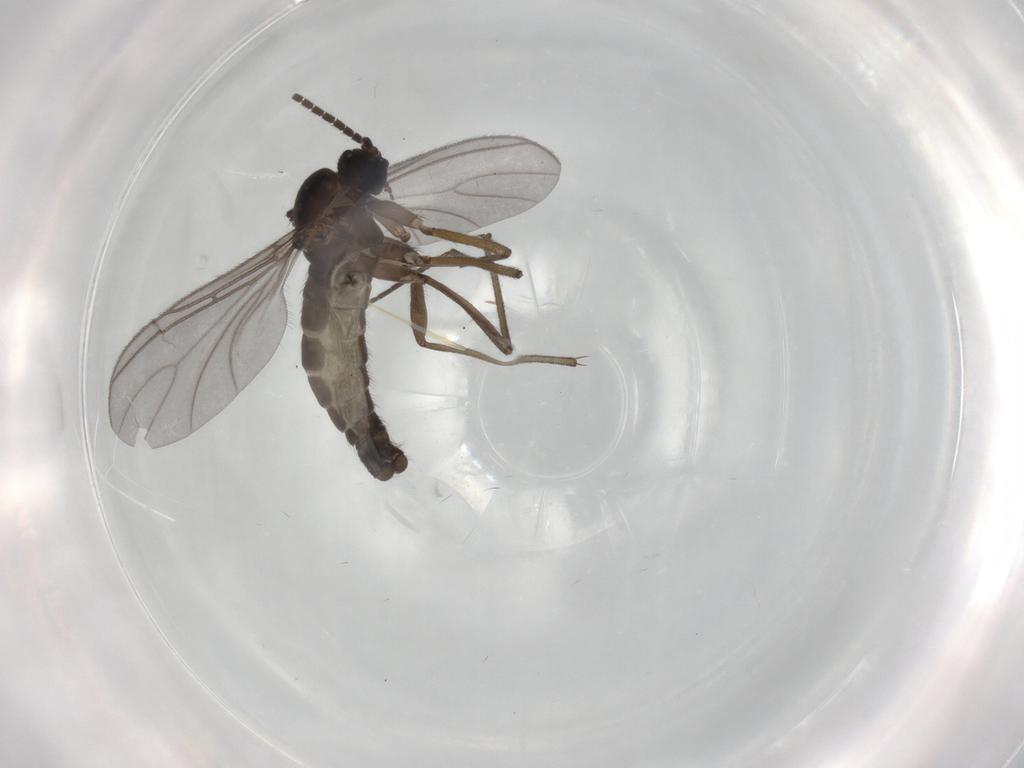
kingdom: Animalia
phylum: Arthropoda
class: Insecta
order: Diptera
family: Sciaridae
